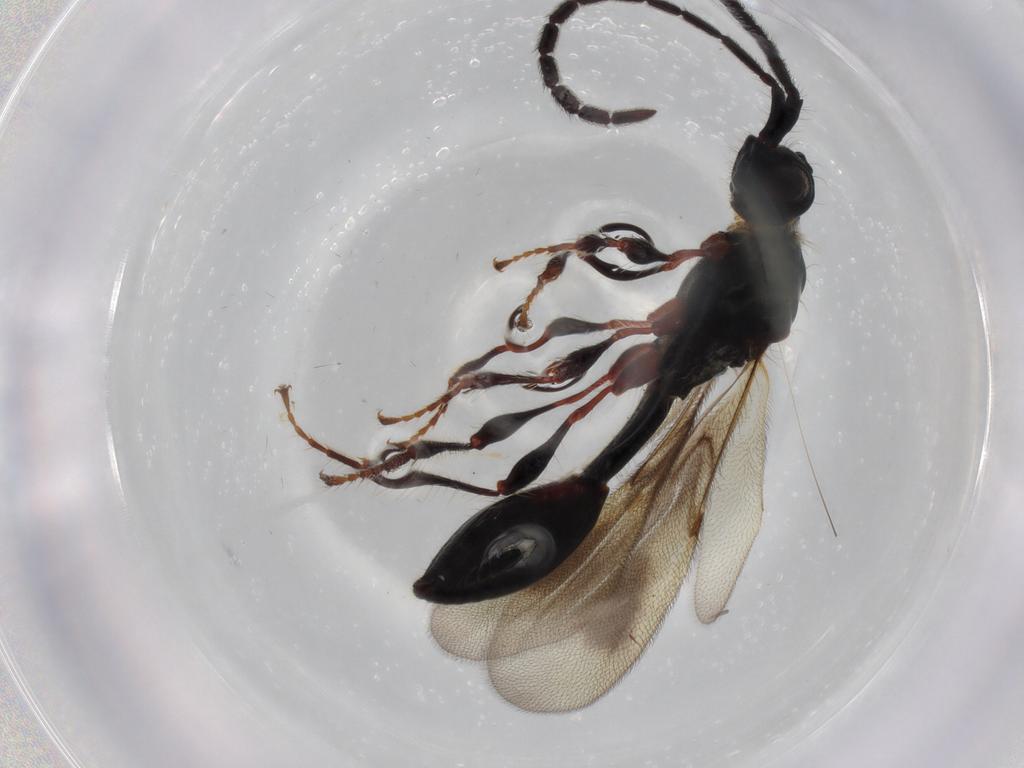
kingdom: Animalia
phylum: Arthropoda
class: Insecta
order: Hymenoptera
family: Diapriidae
